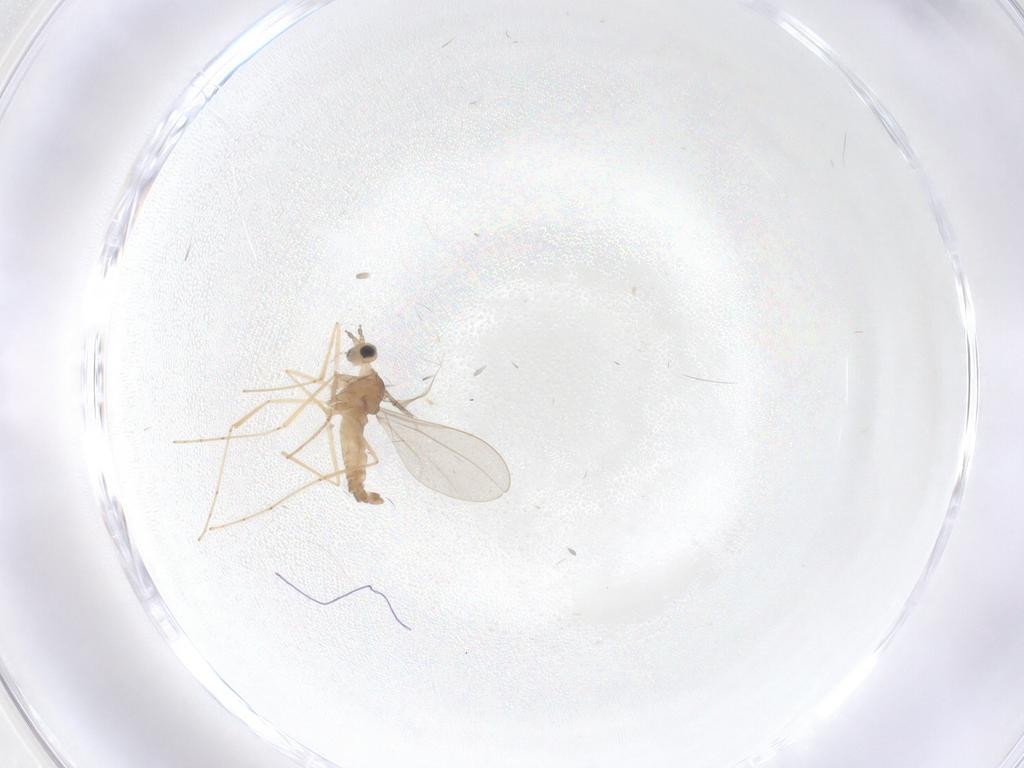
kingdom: Animalia
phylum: Arthropoda
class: Insecta
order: Diptera
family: Cecidomyiidae
